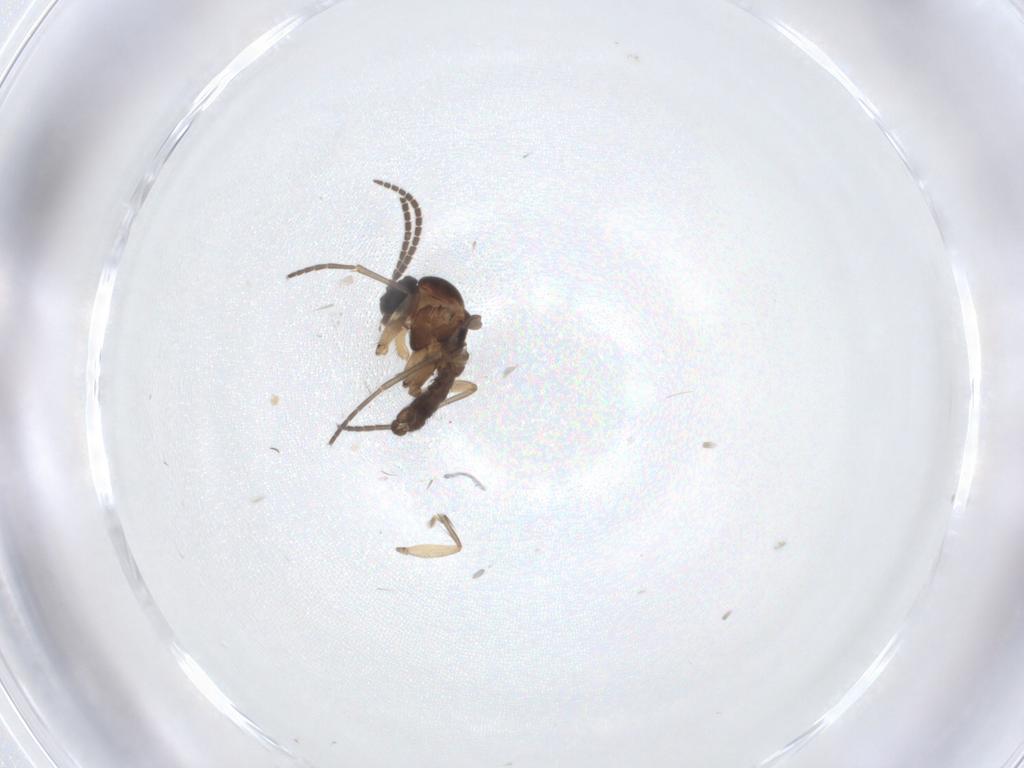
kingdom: Animalia
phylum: Arthropoda
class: Insecta
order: Diptera
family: Sciaridae
